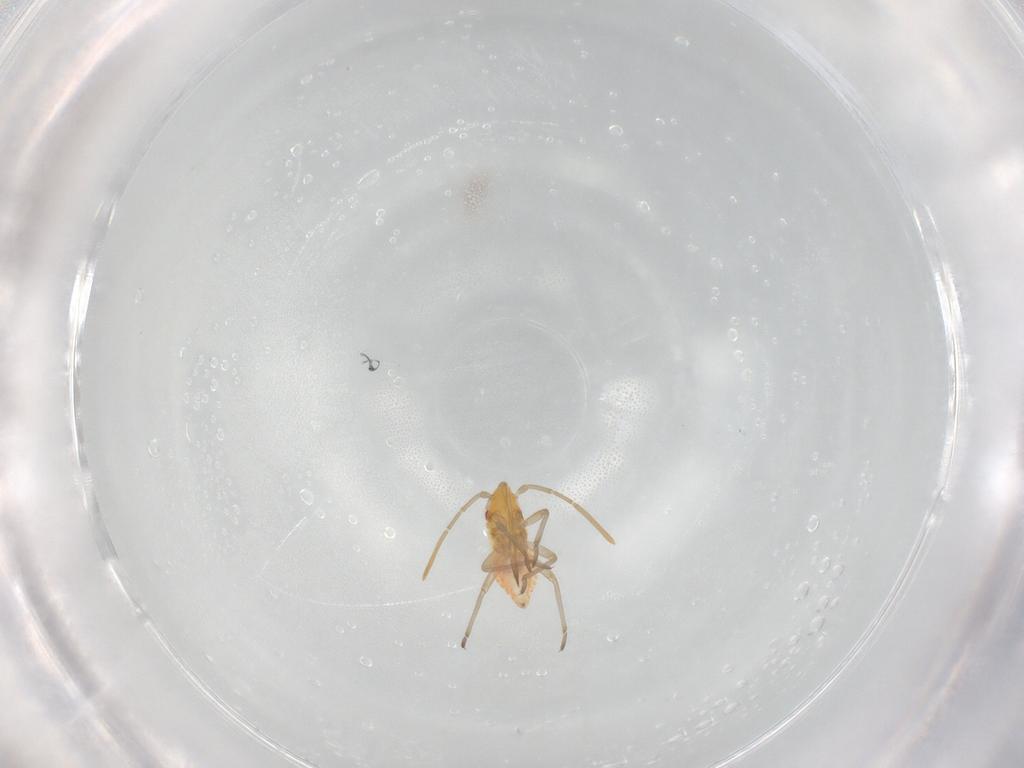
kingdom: Animalia
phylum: Arthropoda
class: Insecta
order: Hemiptera
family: Miridae
